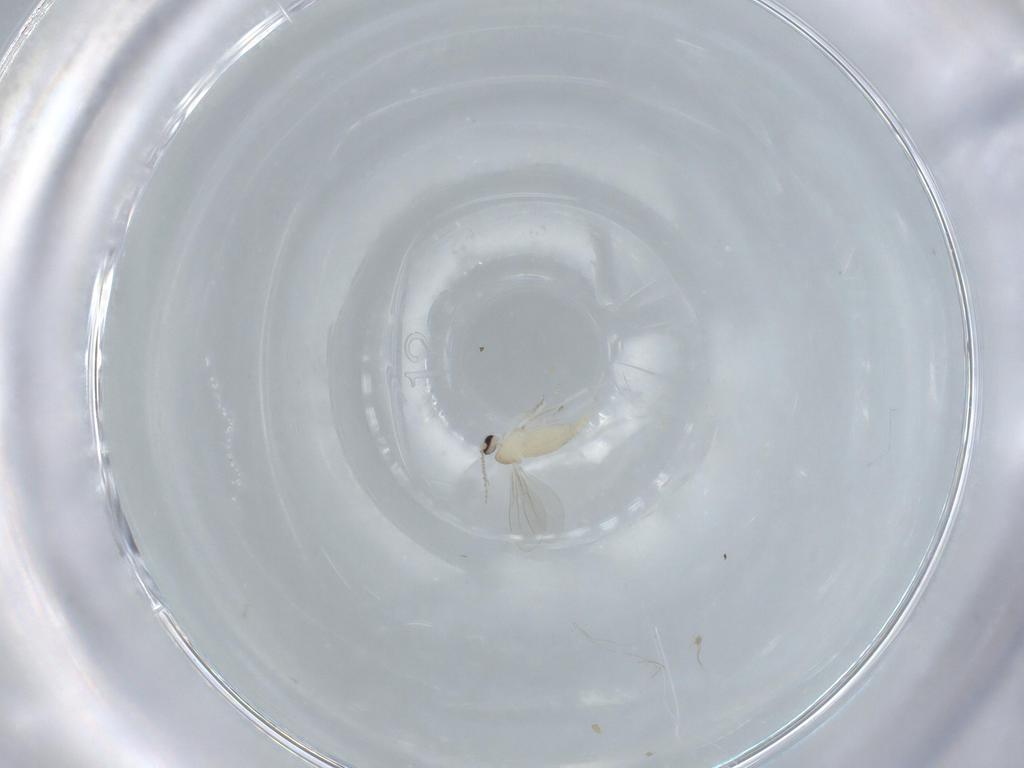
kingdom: Animalia
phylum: Arthropoda
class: Insecta
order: Diptera
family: Cecidomyiidae
